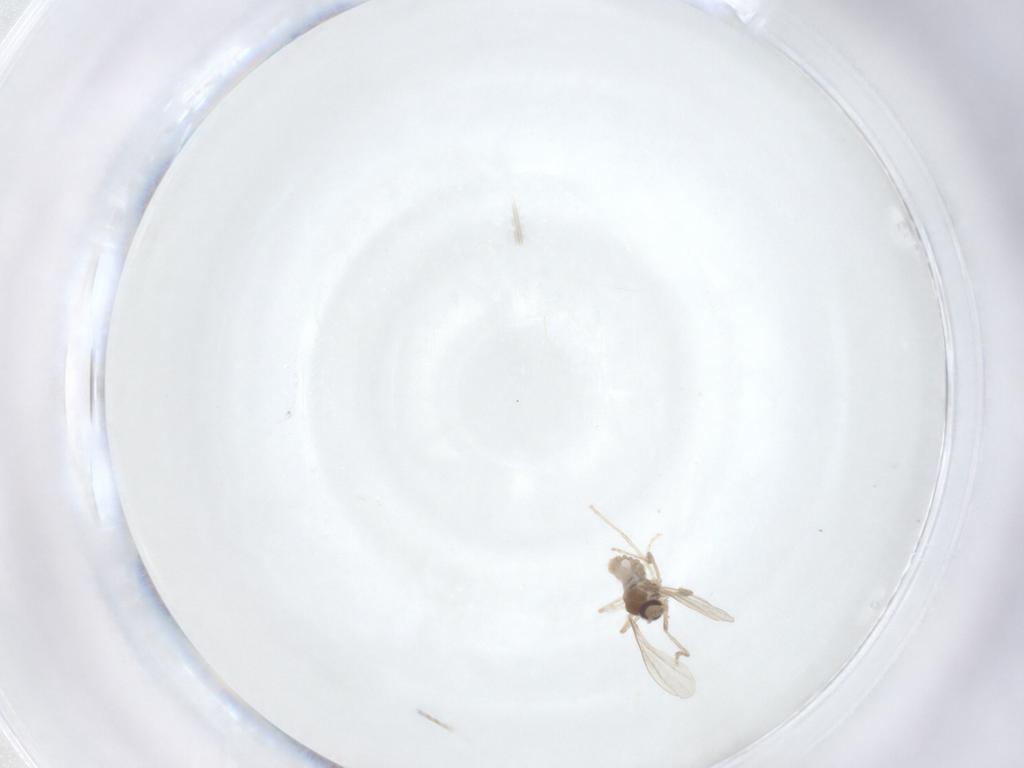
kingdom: Animalia
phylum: Arthropoda
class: Insecta
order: Diptera
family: Cecidomyiidae
